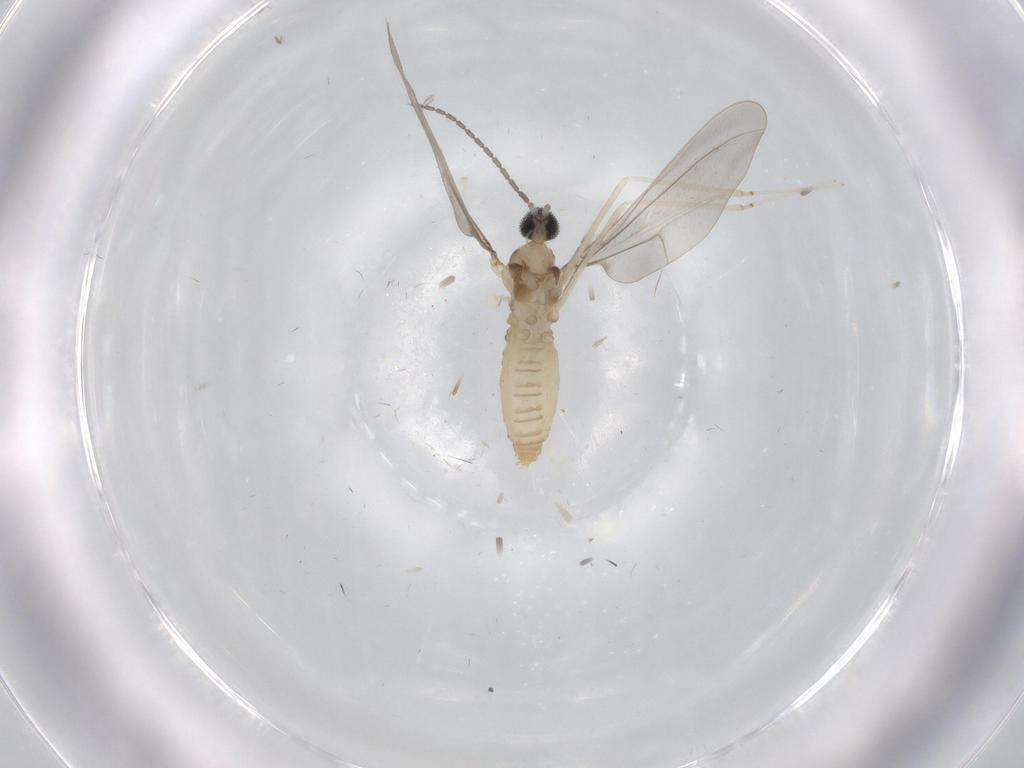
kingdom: Animalia
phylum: Arthropoda
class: Insecta
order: Diptera
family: Cecidomyiidae
